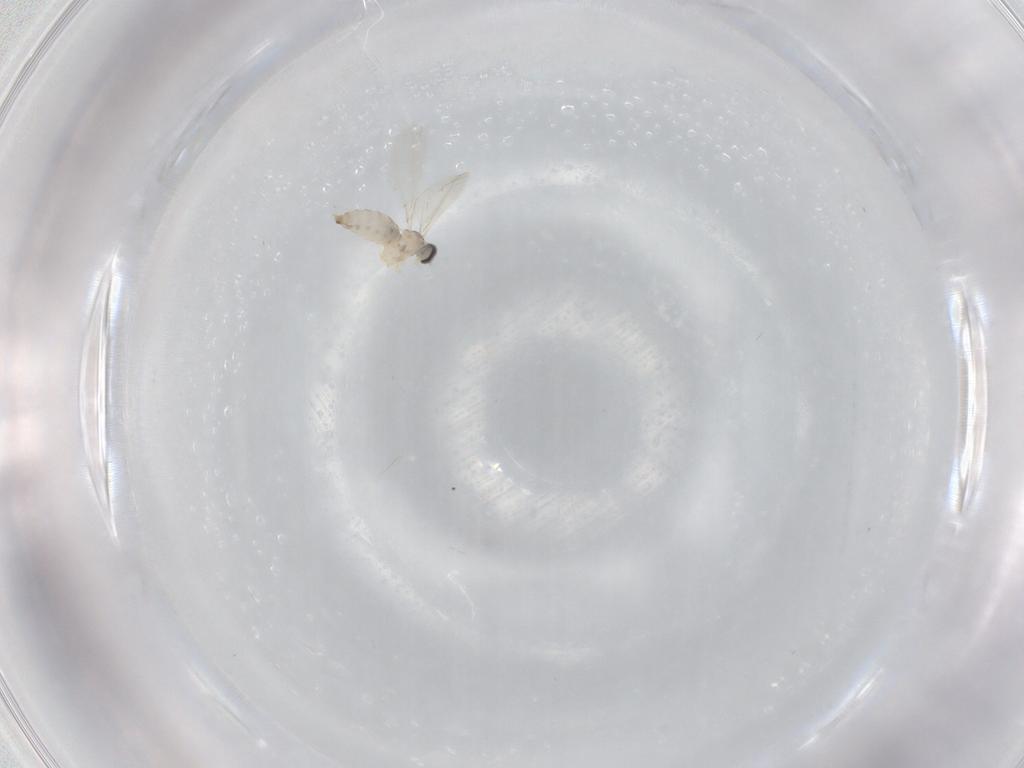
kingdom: Animalia
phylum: Arthropoda
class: Insecta
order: Diptera
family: Cecidomyiidae
